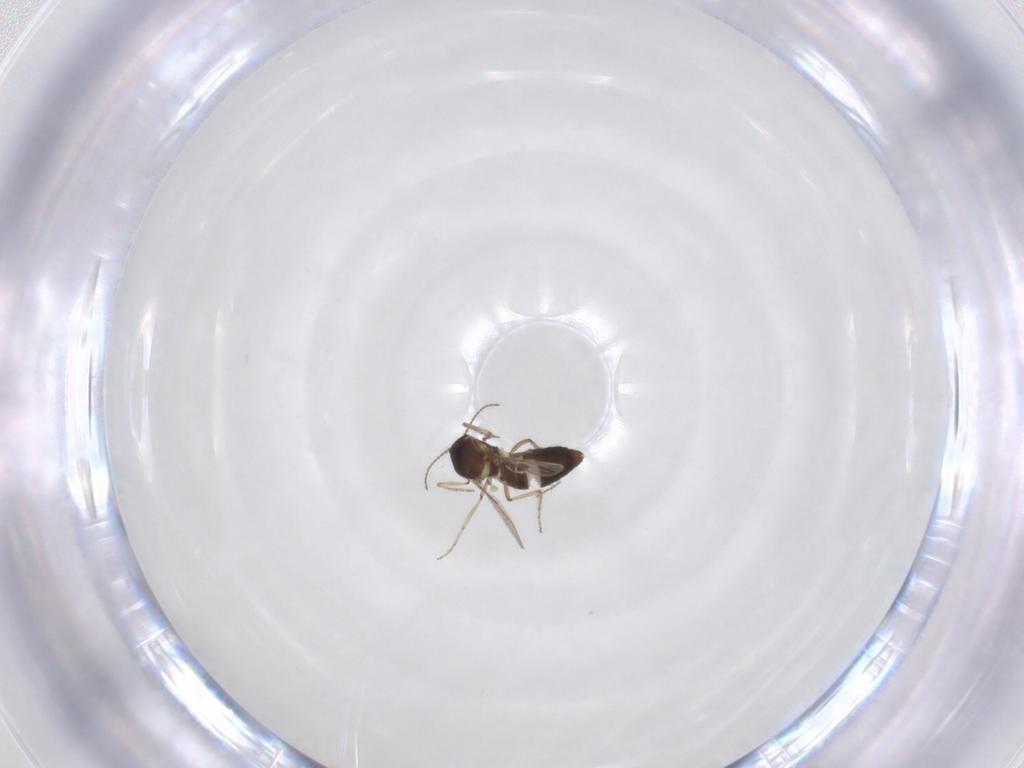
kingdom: Animalia
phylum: Arthropoda
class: Insecta
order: Diptera
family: Ceratopogonidae
